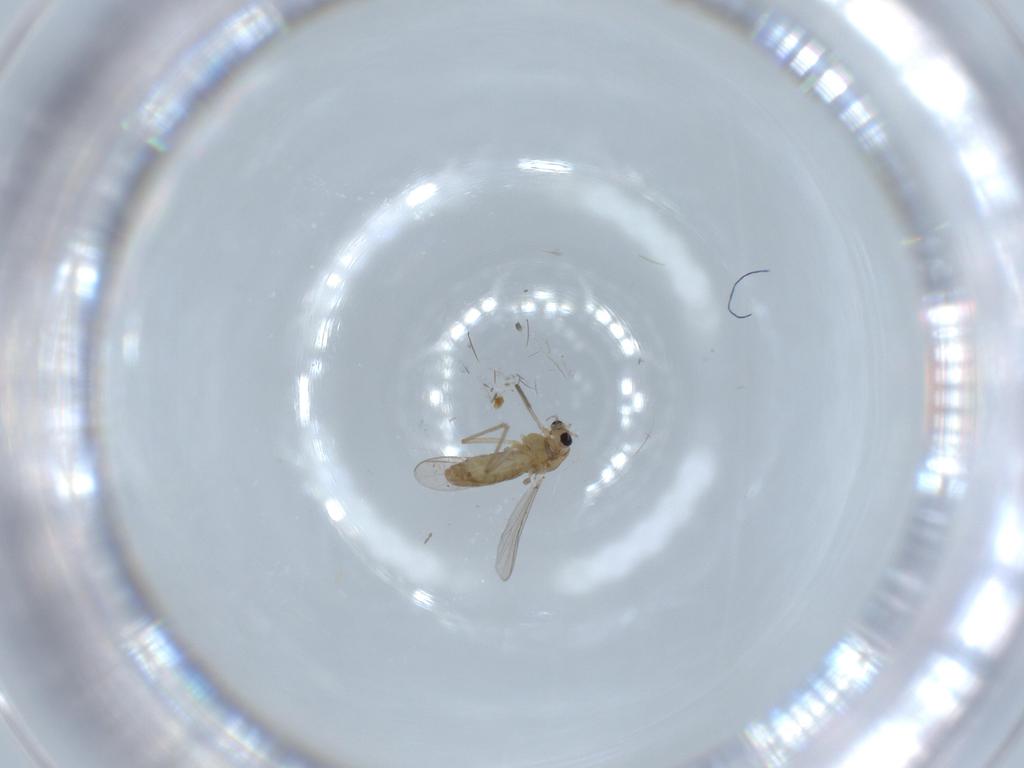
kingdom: Animalia
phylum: Arthropoda
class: Insecta
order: Diptera
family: Chironomidae
